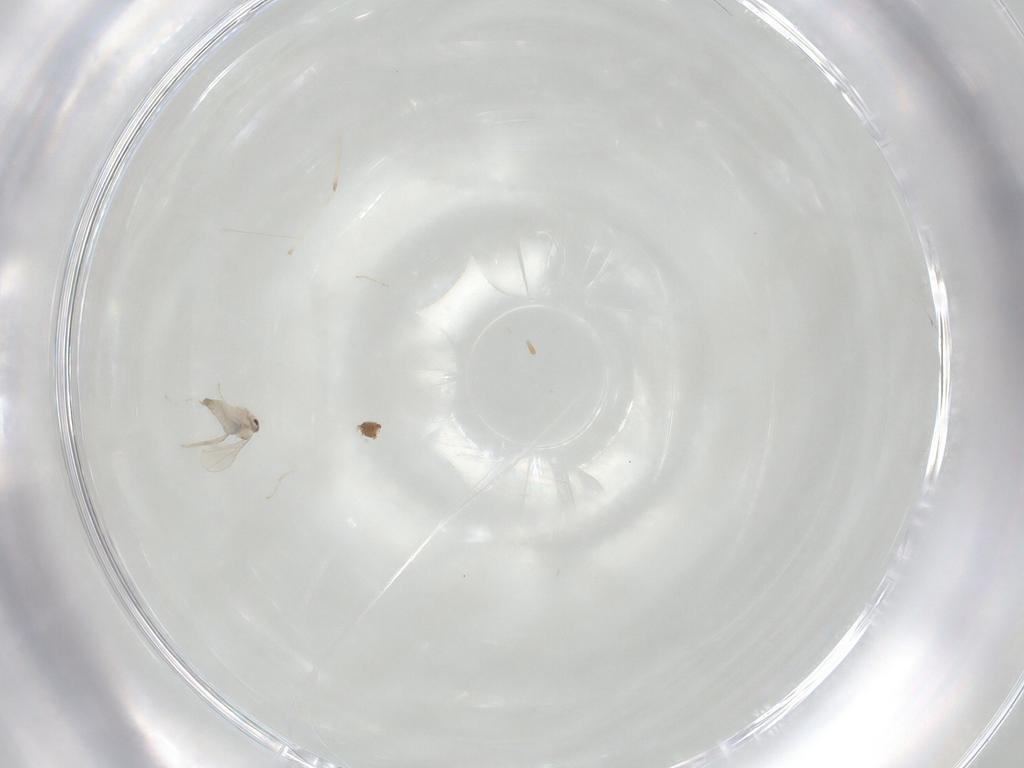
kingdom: Animalia
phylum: Arthropoda
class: Insecta
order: Diptera
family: Cecidomyiidae
